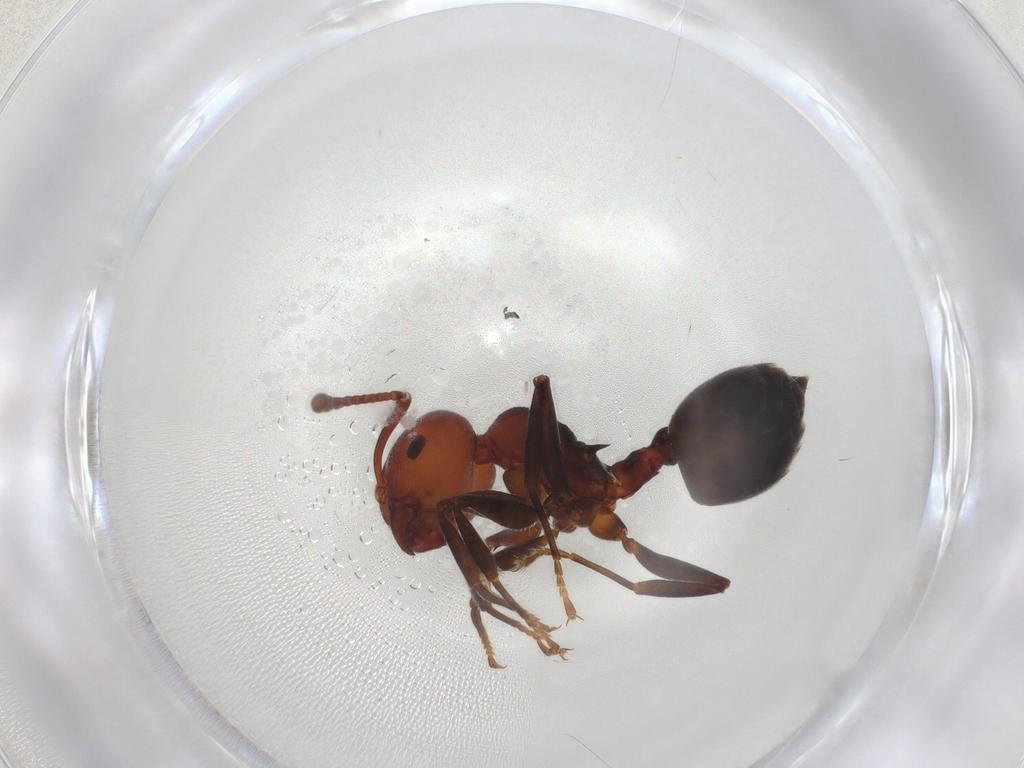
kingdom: Animalia
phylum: Arthropoda
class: Insecta
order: Hymenoptera
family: Formicidae
